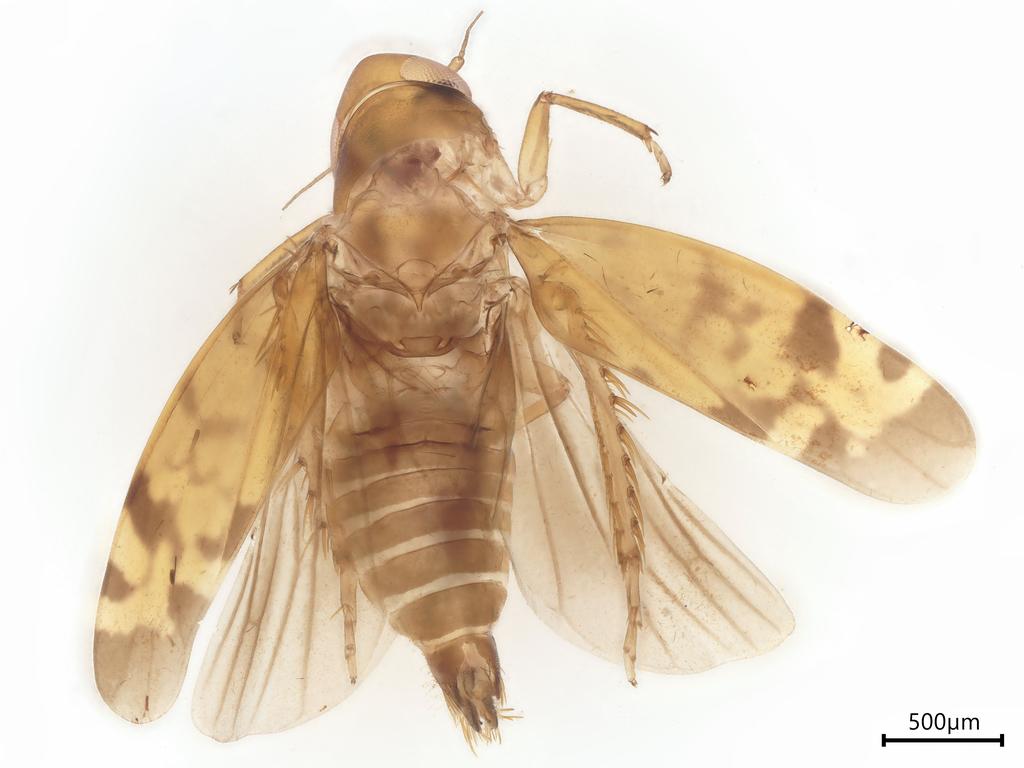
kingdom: Animalia
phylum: Arthropoda
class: Insecta
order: Hemiptera
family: Cicadellidae
